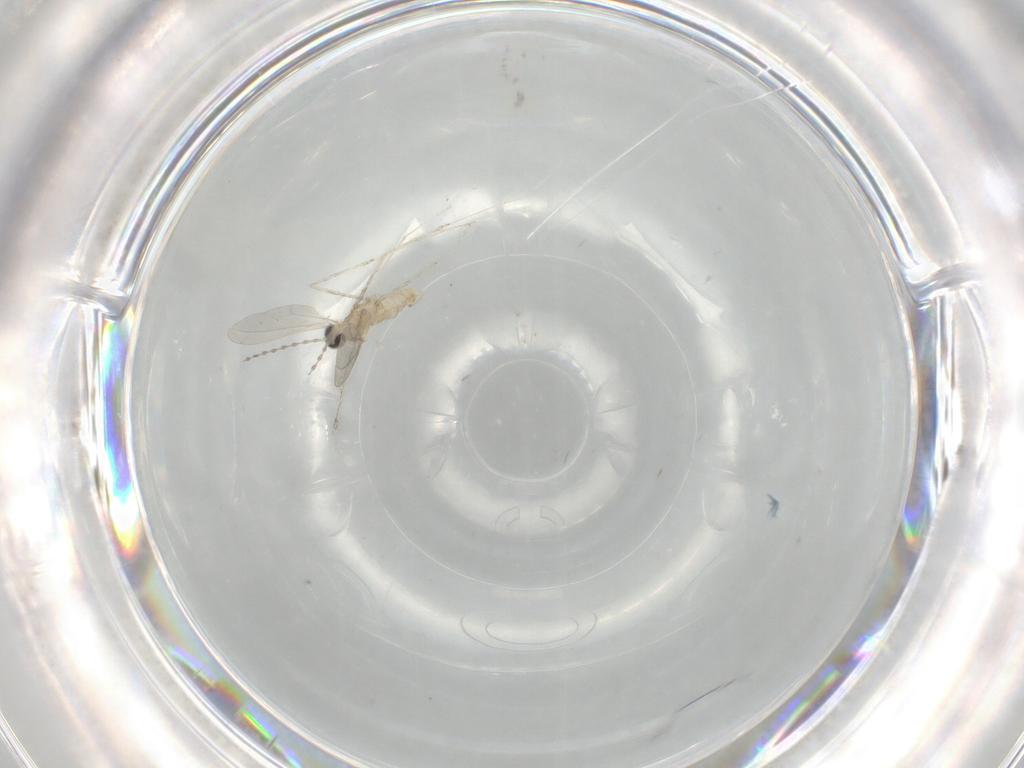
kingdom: Animalia
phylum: Arthropoda
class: Insecta
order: Diptera
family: Cecidomyiidae
